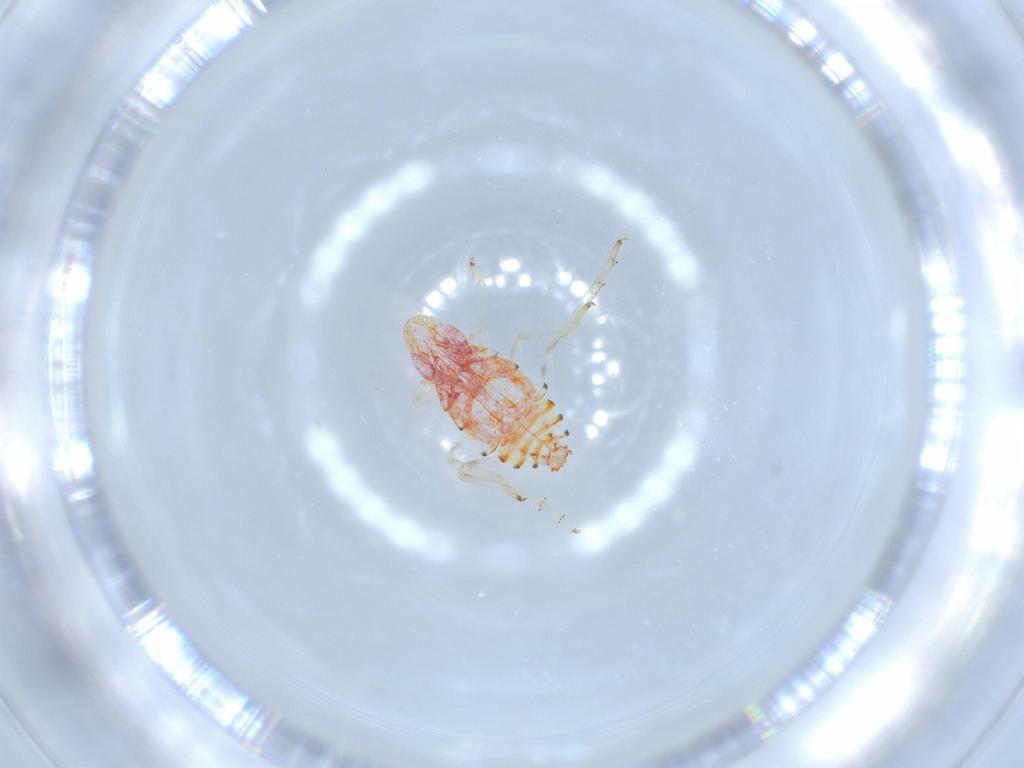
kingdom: Animalia
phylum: Arthropoda
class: Insecta
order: Hemiptera
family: Tropiduchidae
